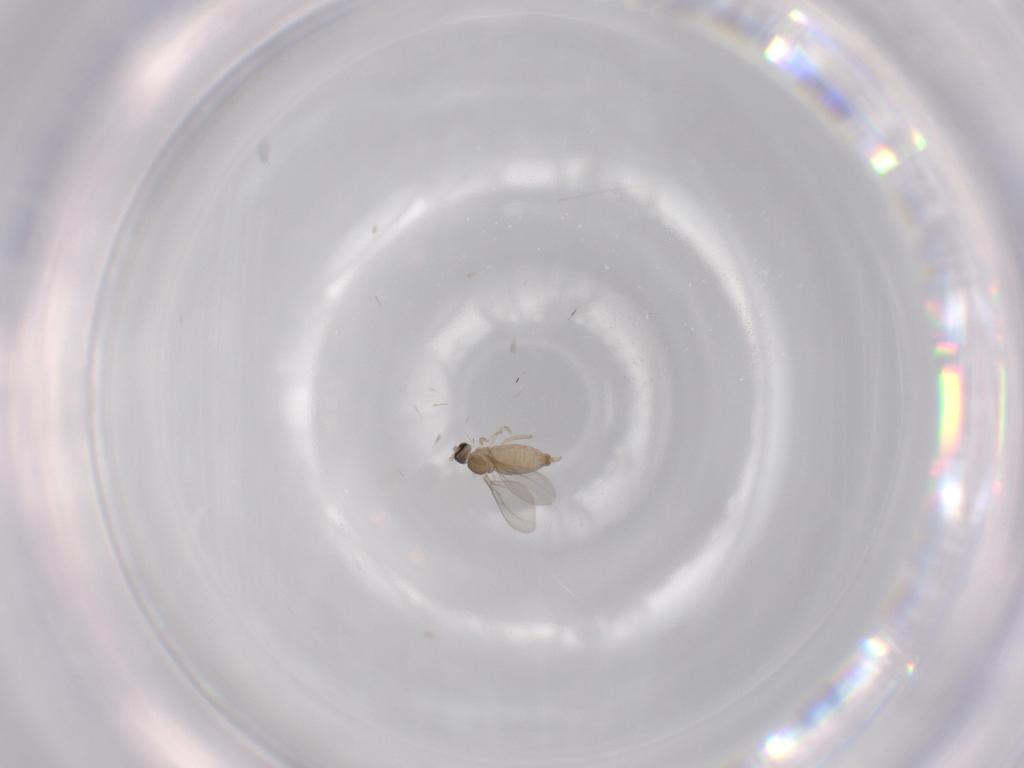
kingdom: Animalia
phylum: Arthropoda
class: Insecta
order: Diptera
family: Cecidomyiidae
